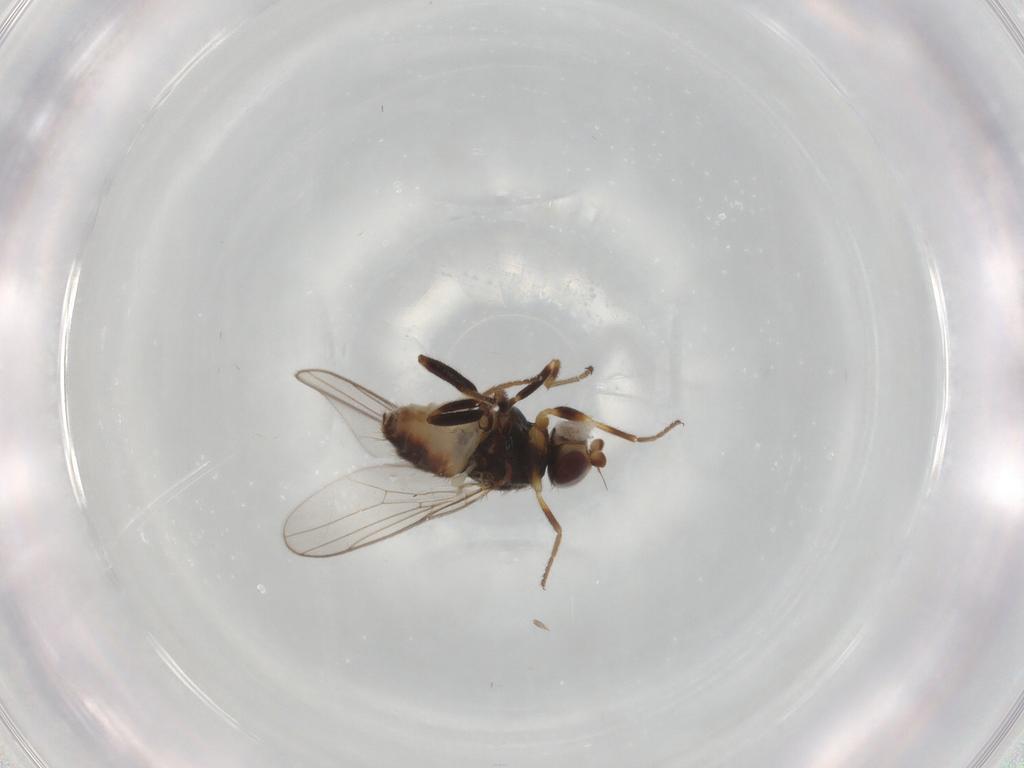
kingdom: Animalia
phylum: Arthropoda
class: Insecta
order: Diptera
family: Chloropidae
